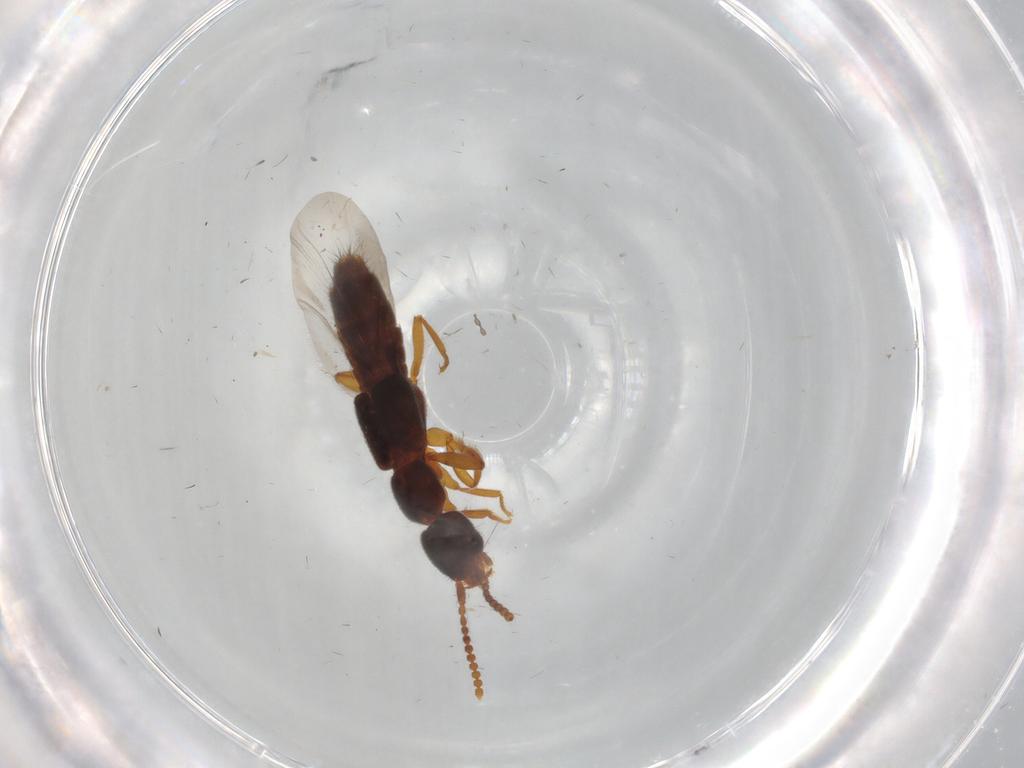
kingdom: Animalia
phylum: Arthropoda
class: Insecta
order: Coleoptera
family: Staphylinidae
